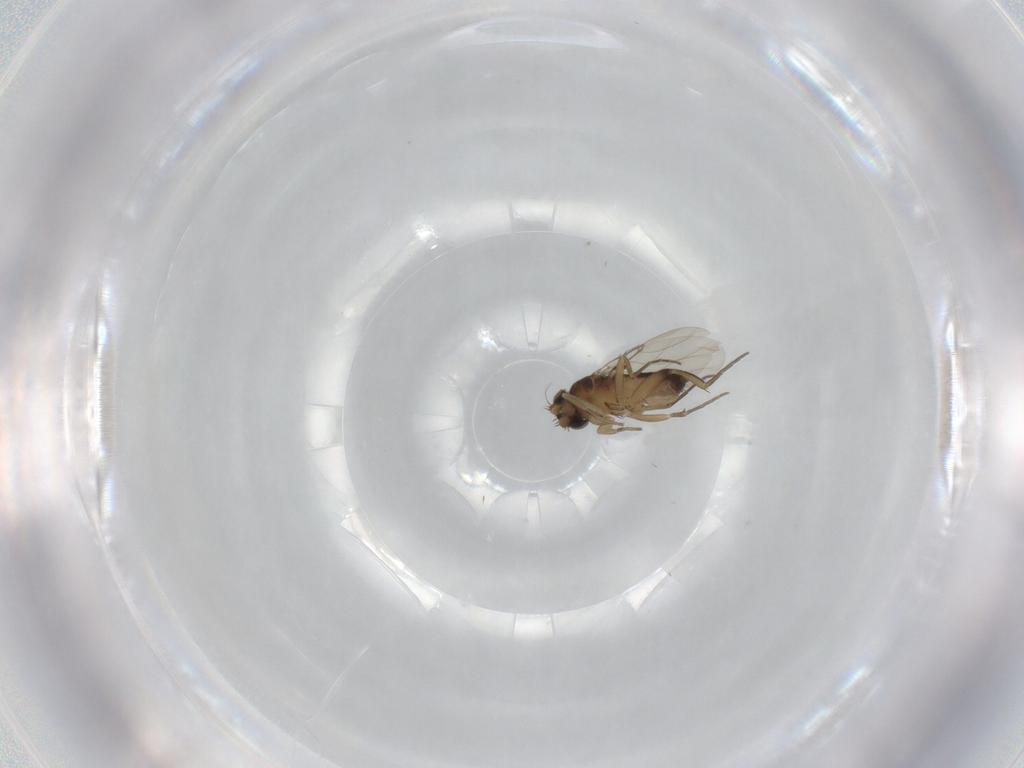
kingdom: Animalia
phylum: Arthropoda
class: Insecta
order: Diptera
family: Phoridae
